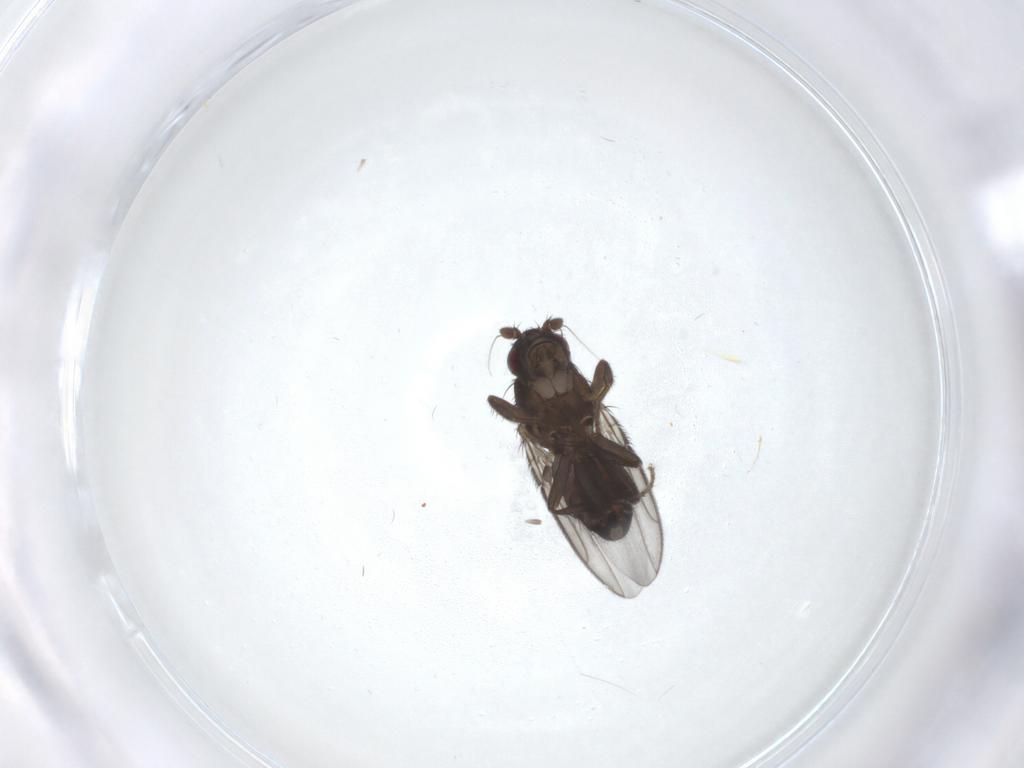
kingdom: Animalia
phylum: Arthropoda
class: Insecta
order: Diptera
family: Sphaeroceridae
